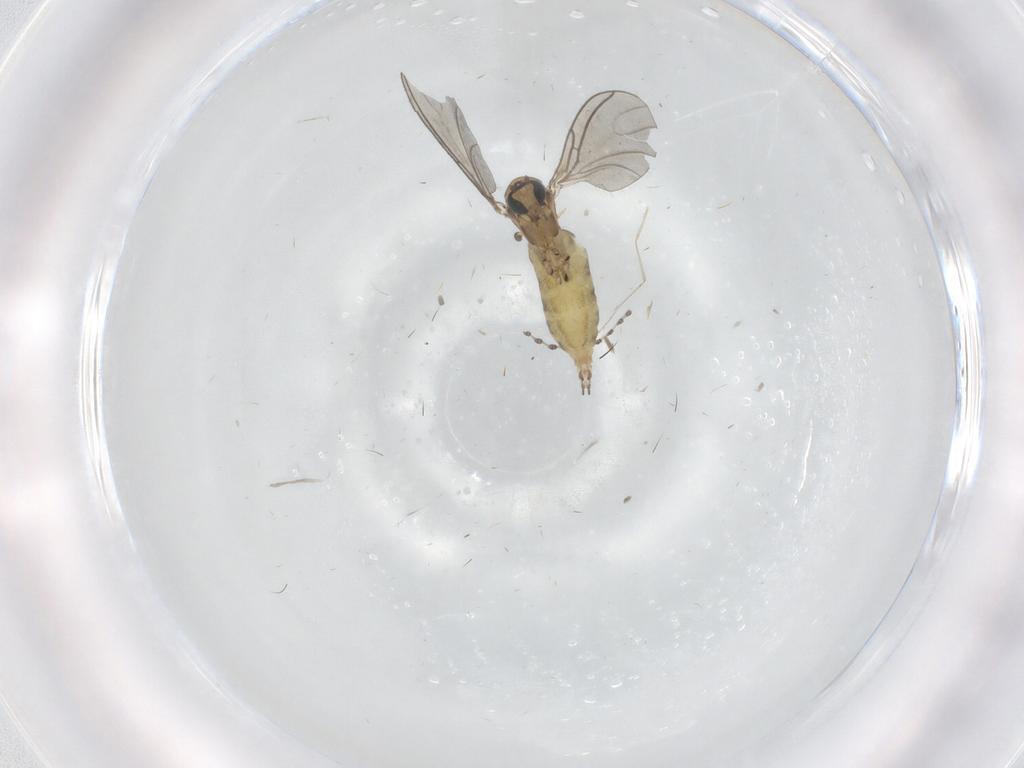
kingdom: Animalia
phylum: Arthropoda
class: Insecta
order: Diptera
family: Sciaridae
